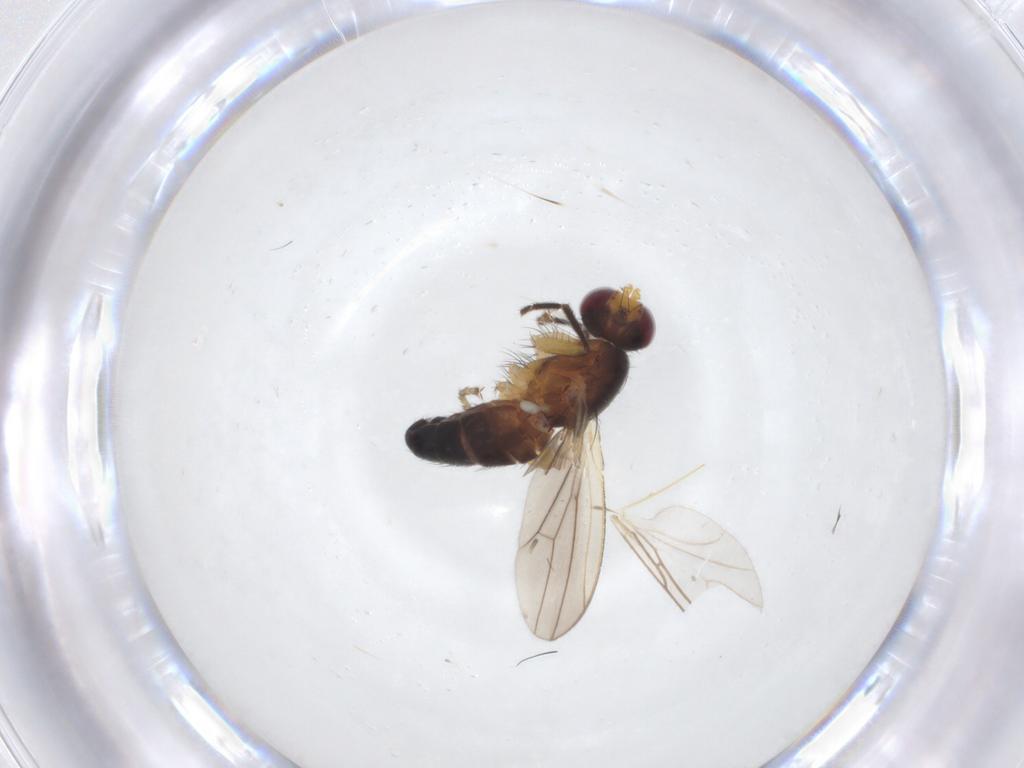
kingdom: Animalia
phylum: Arthropoda
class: Insecta
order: Diptera
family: Heleomyzidae
